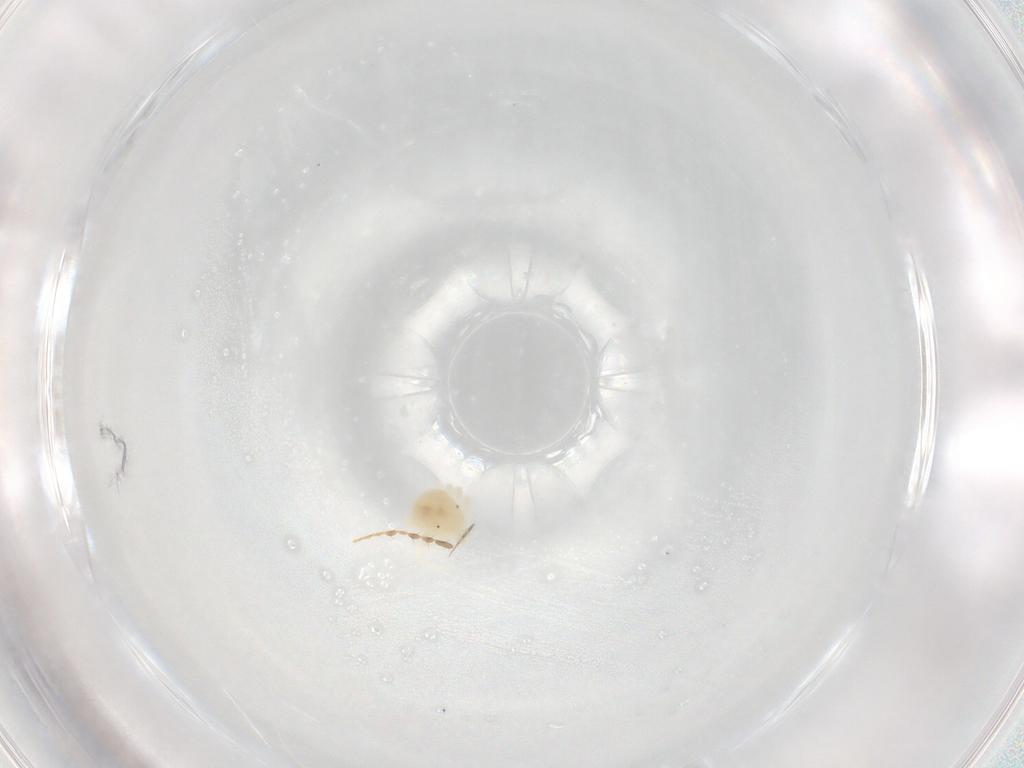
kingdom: Animalia
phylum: Arthropoda
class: Arachnida
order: Trombidiformes
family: Anystidae
